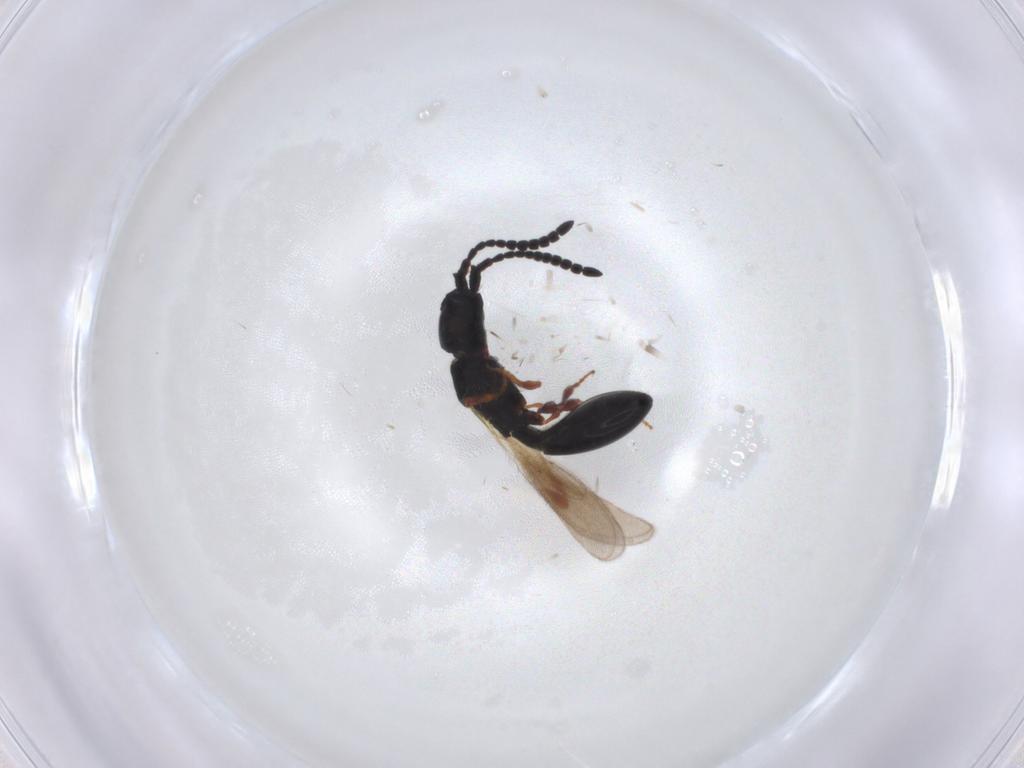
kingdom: Animalia
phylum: Arthropoda
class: Insecta
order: Hymenoptera
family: Diapriidae
